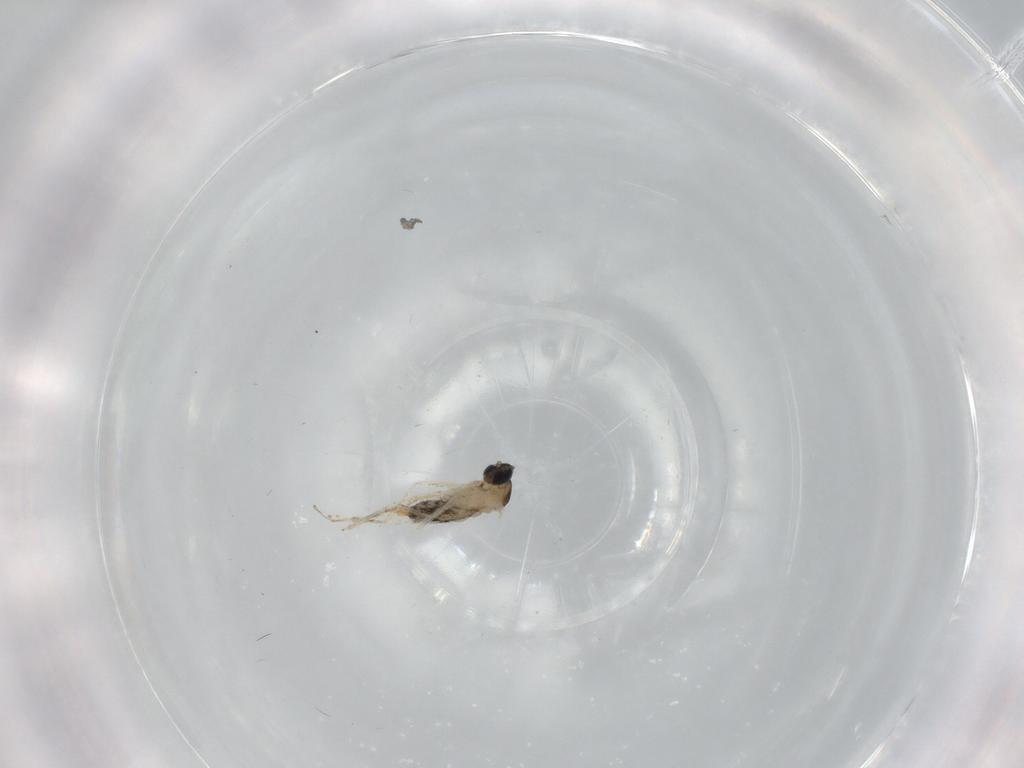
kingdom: Animalia
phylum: Arthropoda
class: Insecta
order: Diptera
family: Cecidomyiidae
